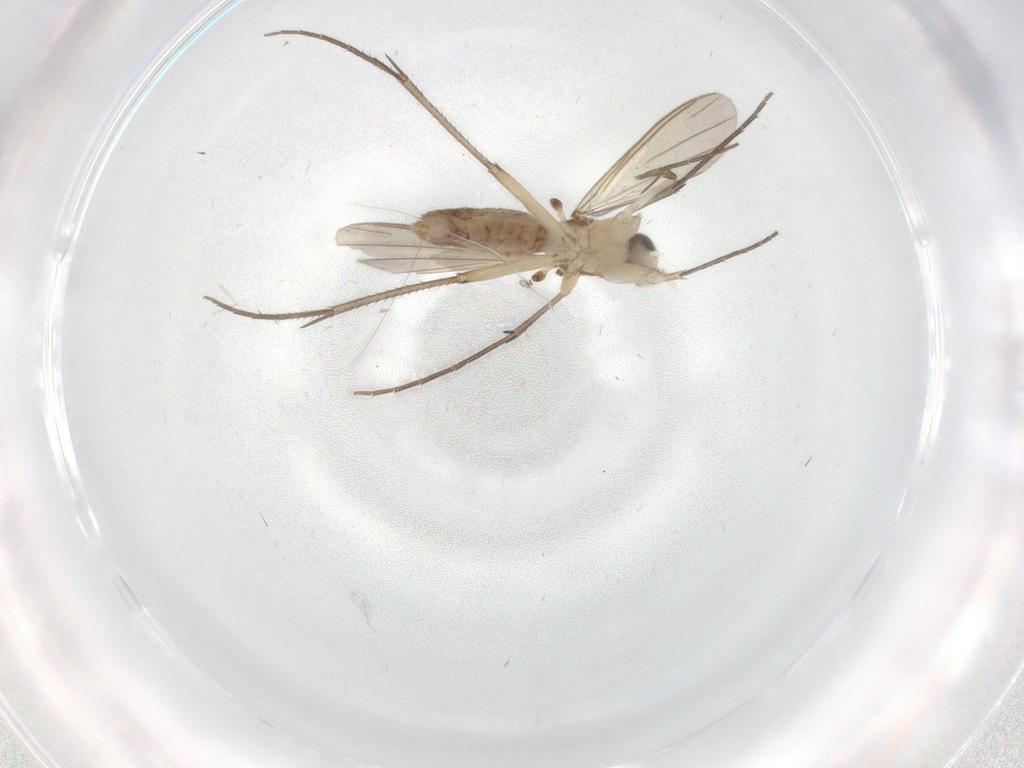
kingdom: Animalia
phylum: Arthropoda
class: Insecta
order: Diptera
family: Mycetophilidae
